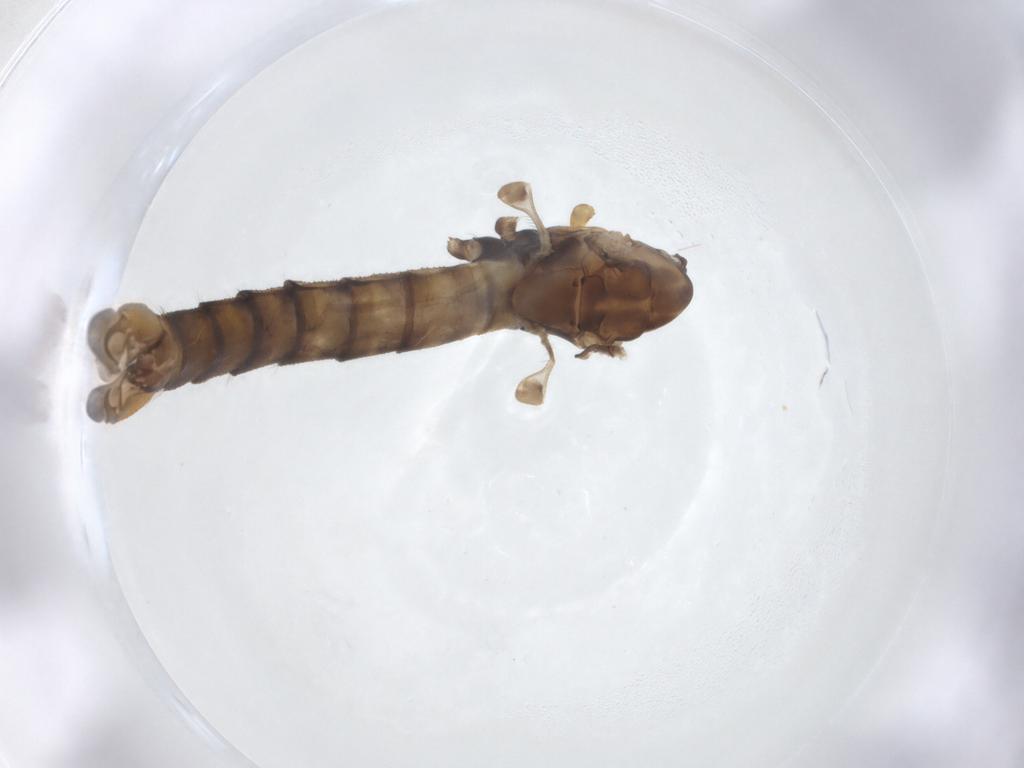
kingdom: Animalia
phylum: Arthropoda
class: Insecta
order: Diptera
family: Limoniidae
